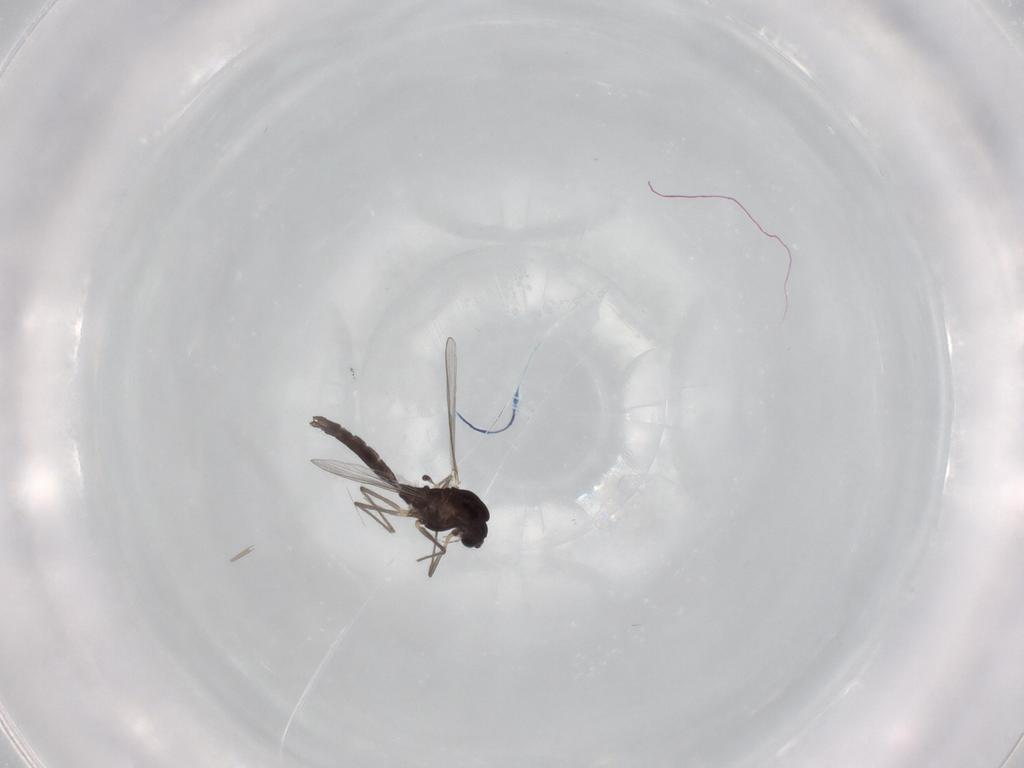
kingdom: Animalia
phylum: Arthropoda
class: Insecta
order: Diptera
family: Chironomidae
